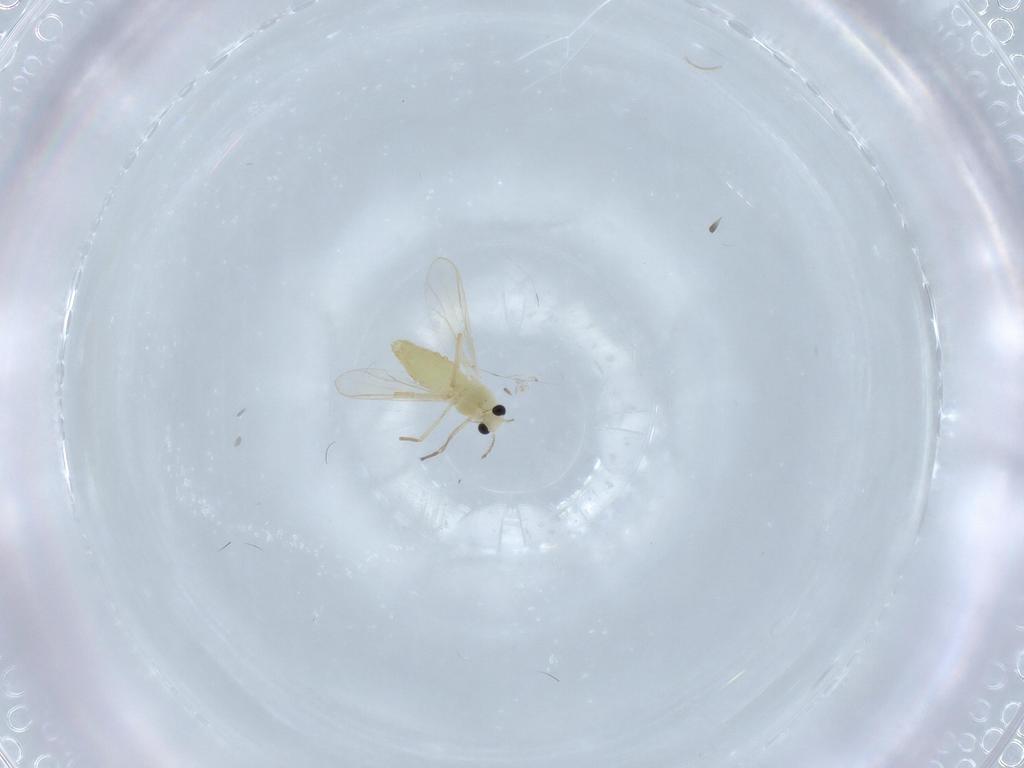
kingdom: Animalia
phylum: Arthropoda
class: Insecta
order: Diptera
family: Chironomidae
